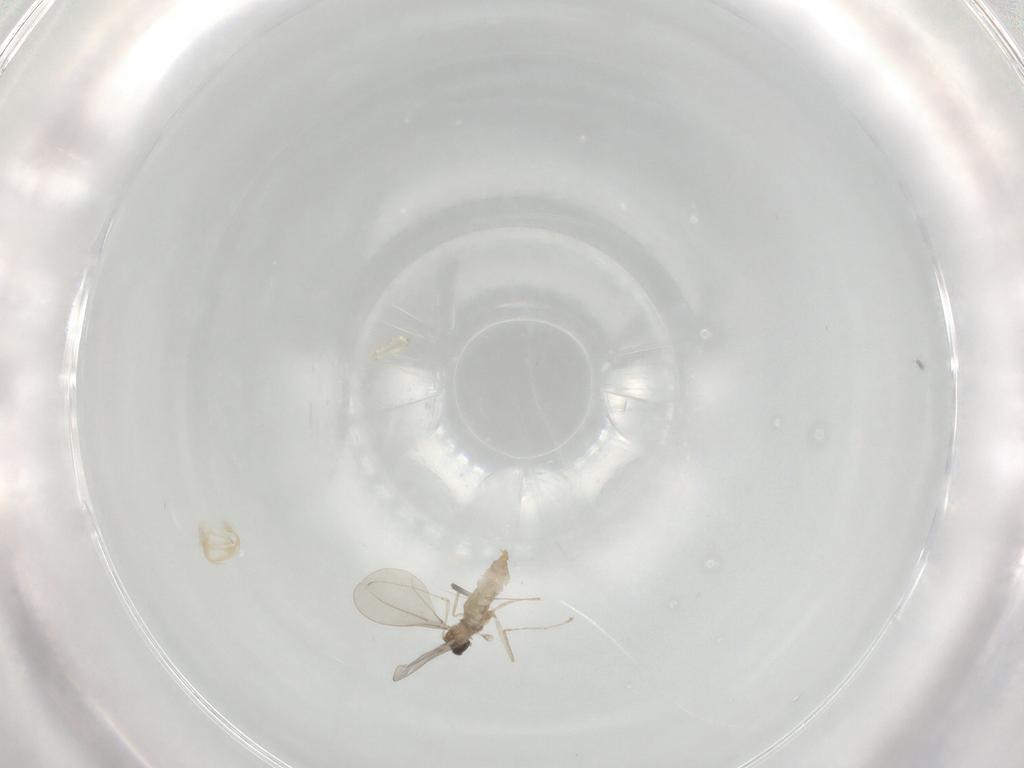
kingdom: Animalia
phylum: Arthropoda
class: Insecta
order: Diptera
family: Cecidomyiidae
